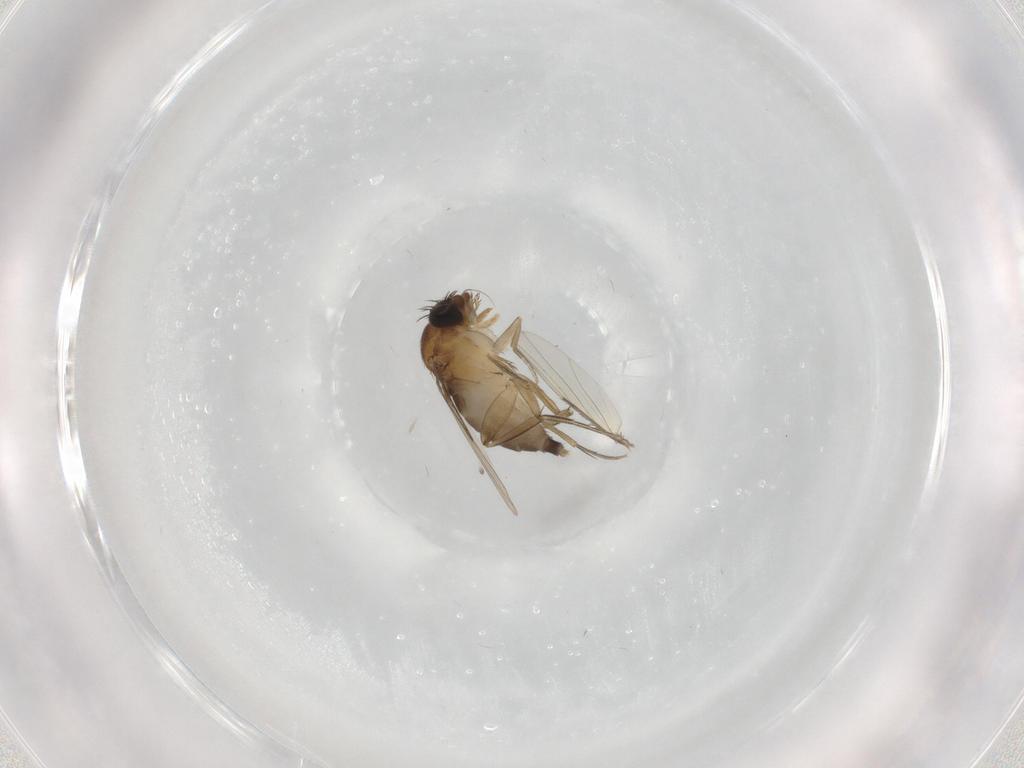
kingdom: Animalia
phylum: Arthropoda
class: Insecta
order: Diptera
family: Phoridae
